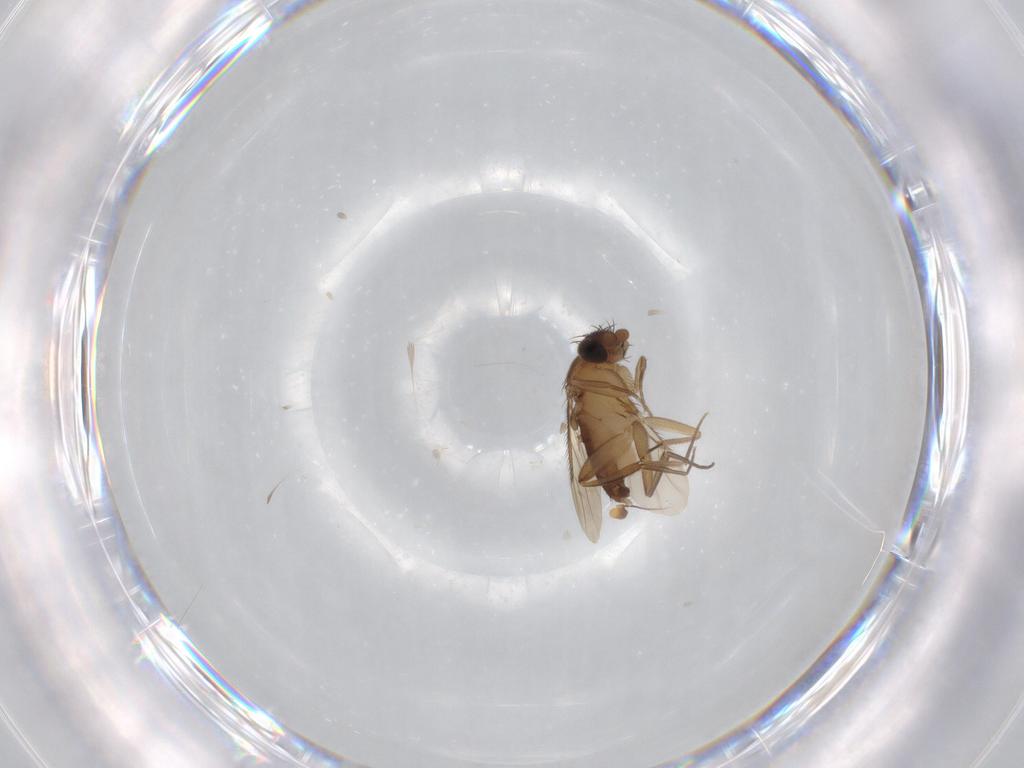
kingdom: Animalia
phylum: Arthropoda
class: Insecta
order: Diptera
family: Phoridae
